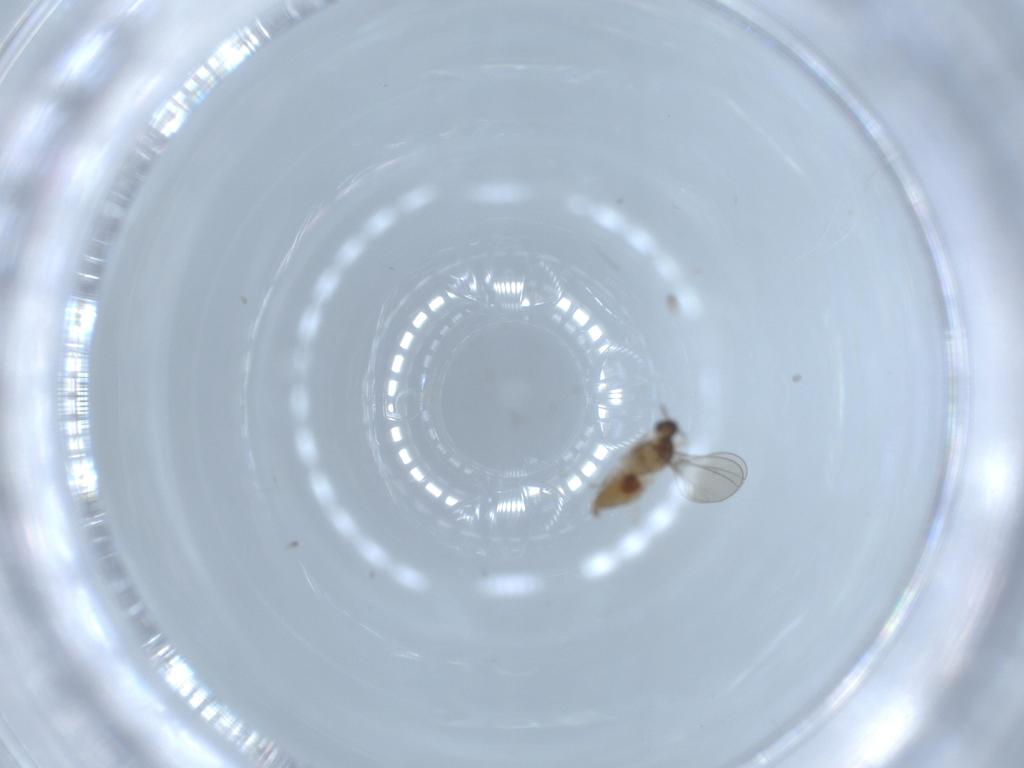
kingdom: Animalia
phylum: Arthropoda
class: Insecta
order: Diptera
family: Cecidomyiidae
